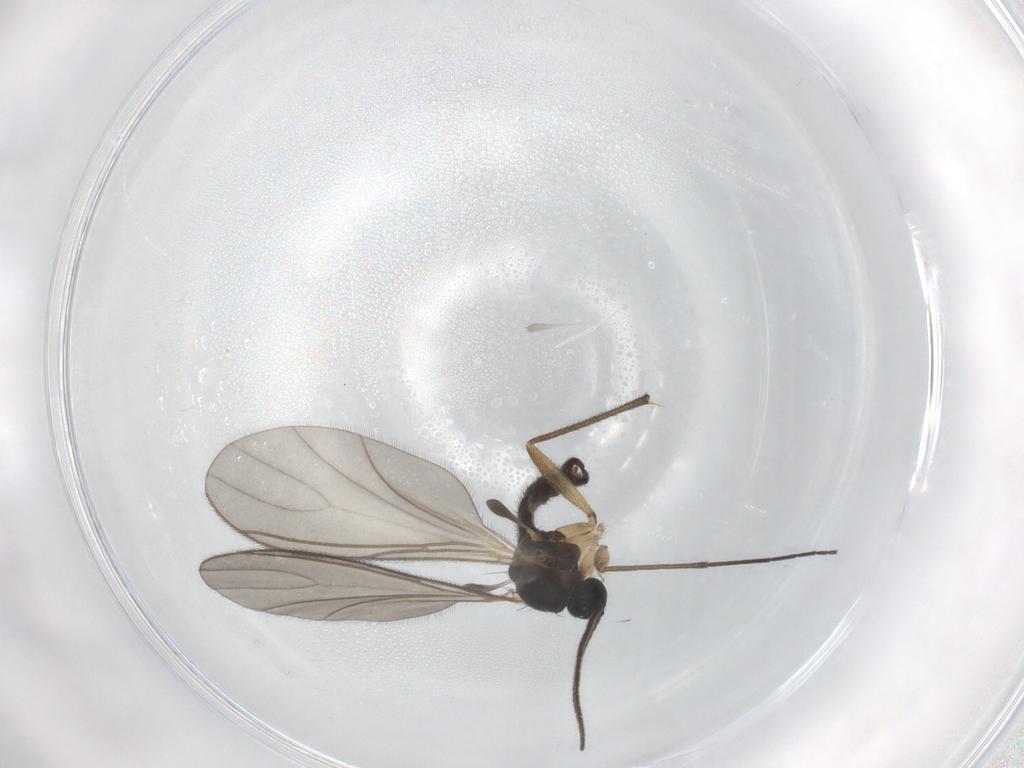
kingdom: Animalia
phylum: Arthropoda
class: Insecta
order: Diptera
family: Sciaridae
